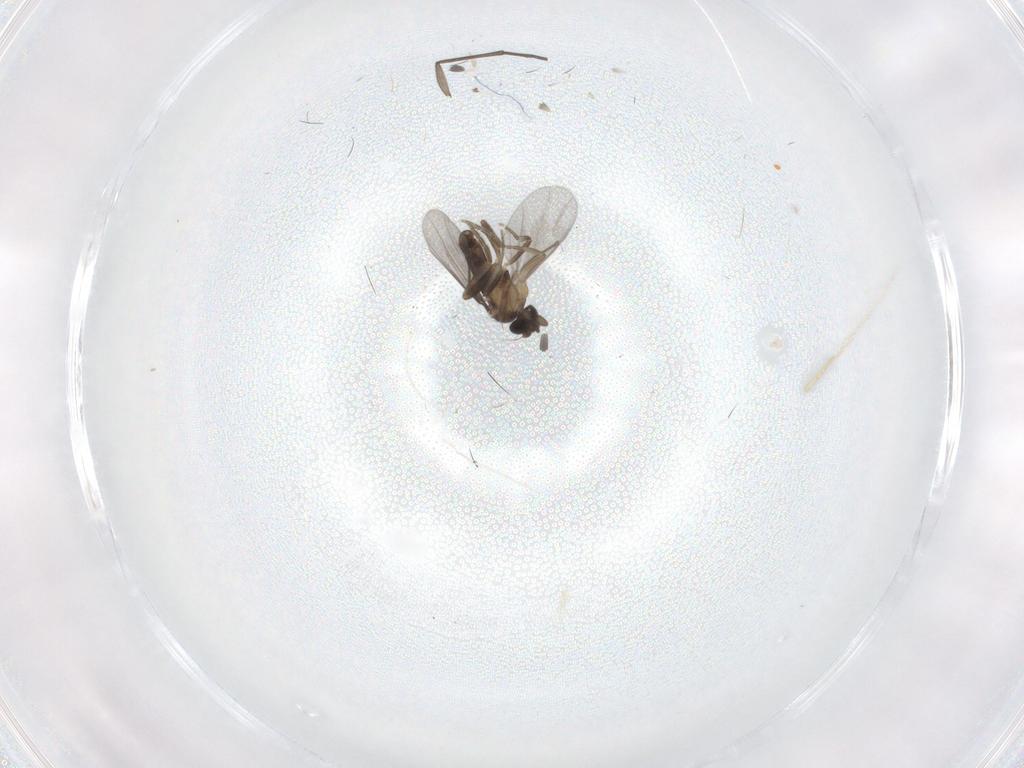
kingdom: Animalia
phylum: Arthropoda
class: Insecta
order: Diptera
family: Sciaridae
